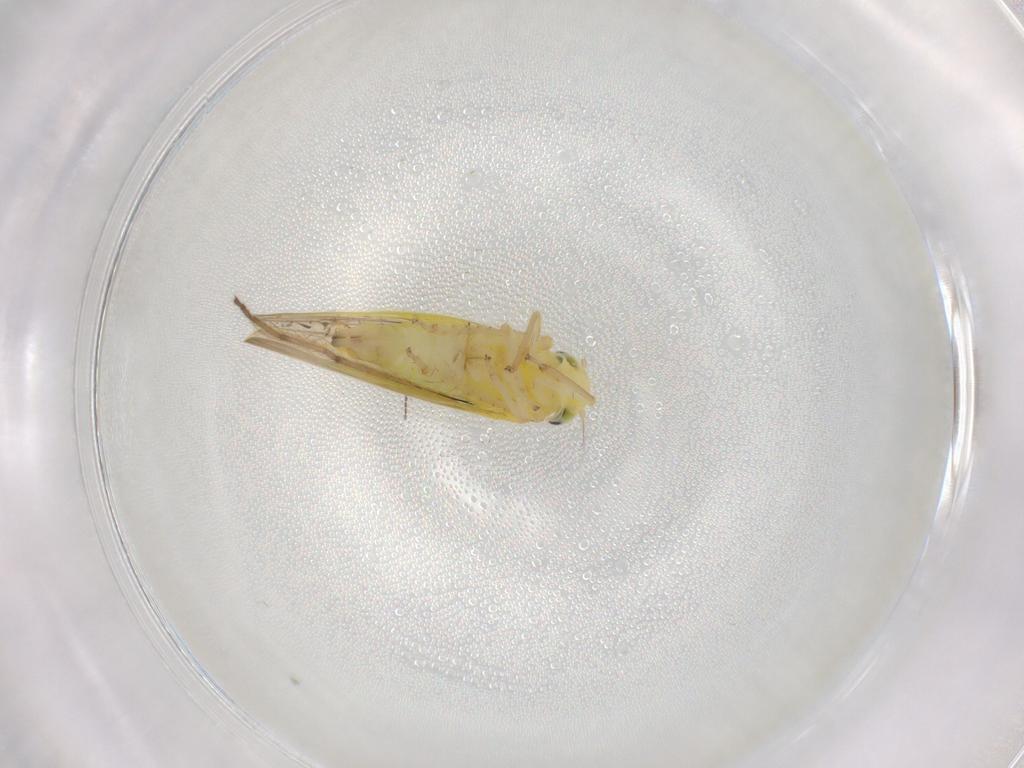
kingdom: Animalia
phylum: Arthropoda
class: Insecta
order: Hemiptera
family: Cicadellidae
